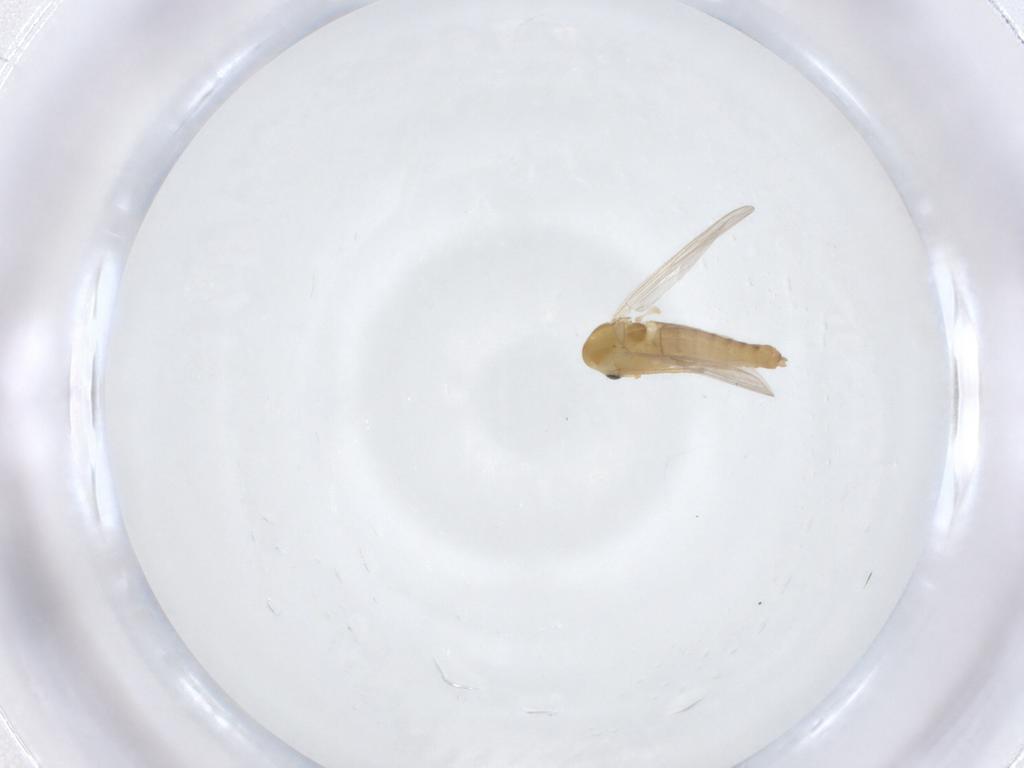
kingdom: Animalia
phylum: Arthropoda
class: Insecta
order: Diptera
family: Chironomidae
